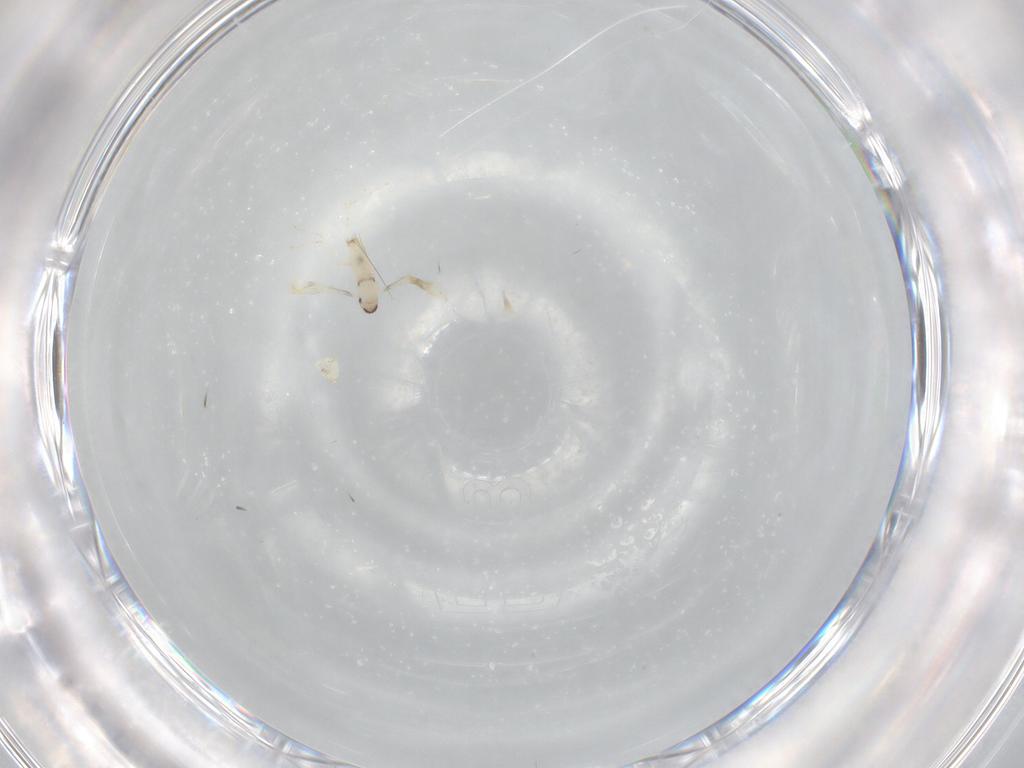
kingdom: Animalia
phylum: Arthropoda
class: Insecta
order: Diptera
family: Cecidomyiidae
